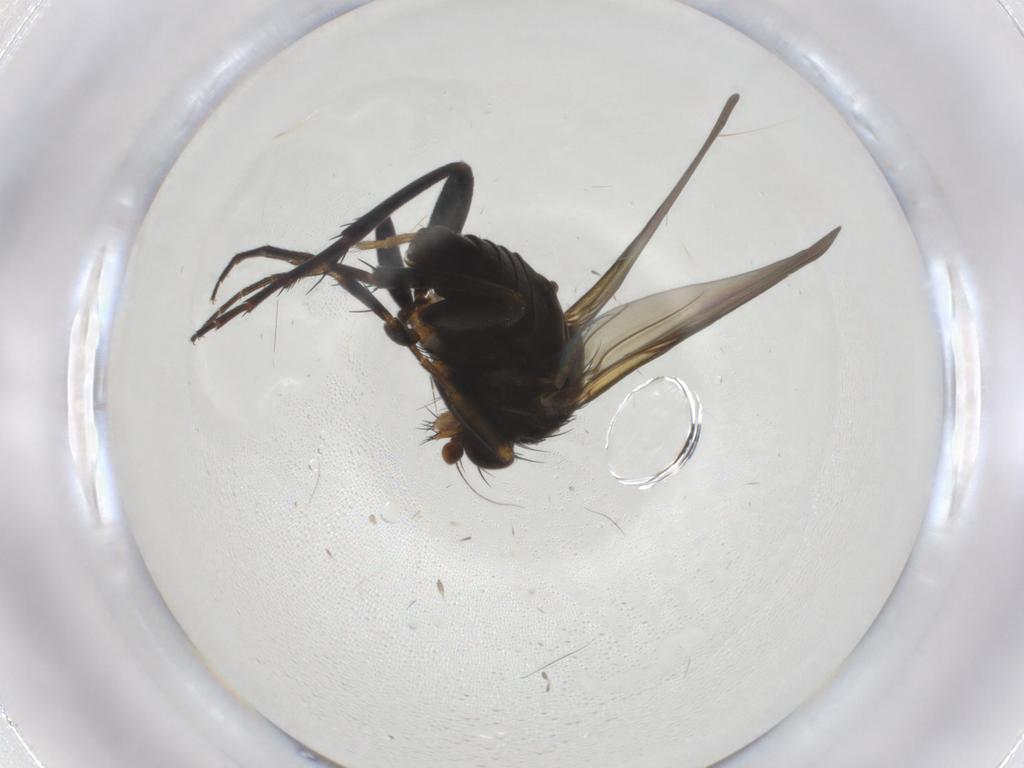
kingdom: Animalia
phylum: Arthropoda
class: Insecta
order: Diptera
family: Phoridae
